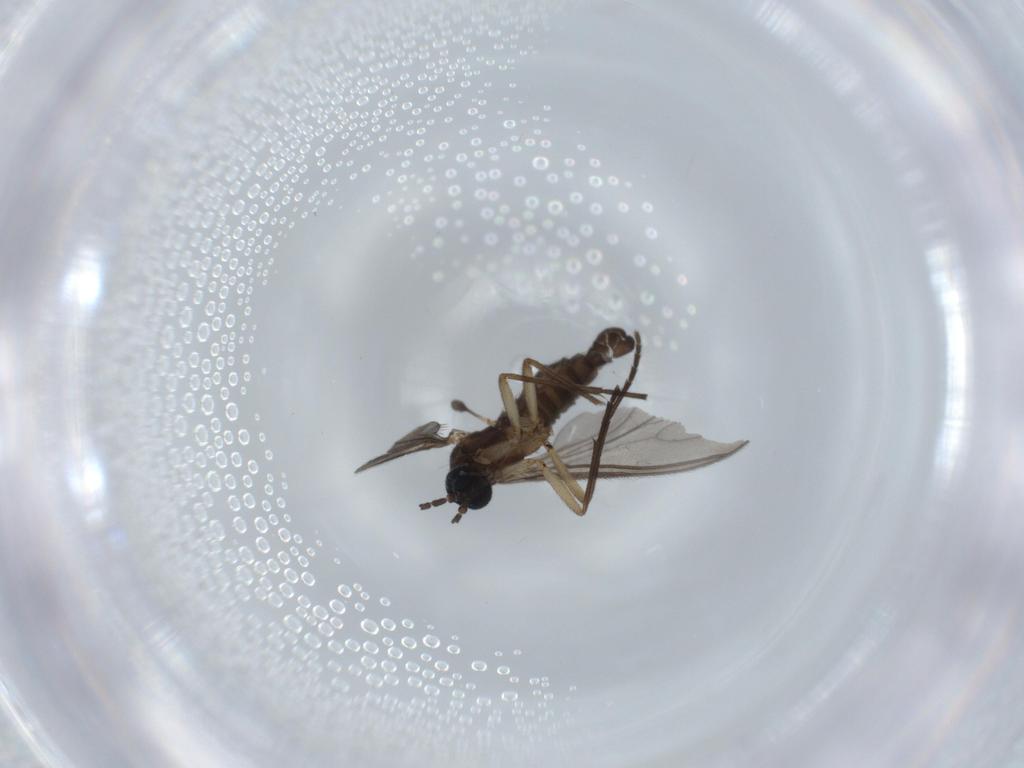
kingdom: Animalia
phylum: Arthropoda
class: Insecta
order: Diptera
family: Sciaridae
